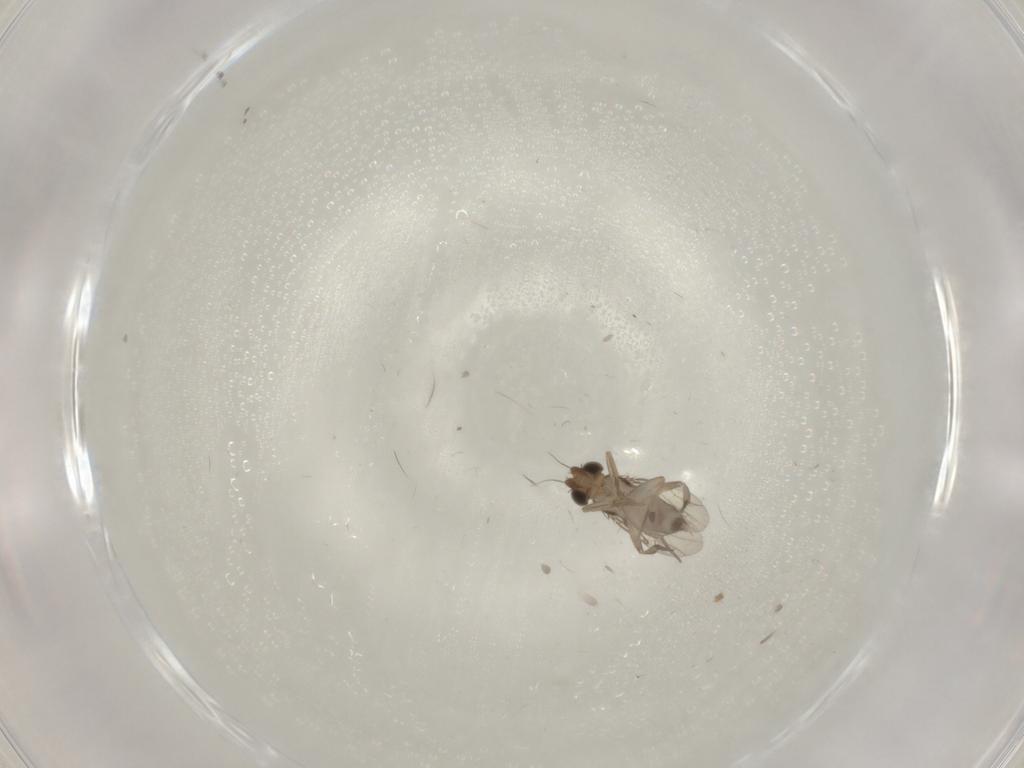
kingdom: Animalia
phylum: Arthropoda
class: Insecta
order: Diptera
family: Phoridae
